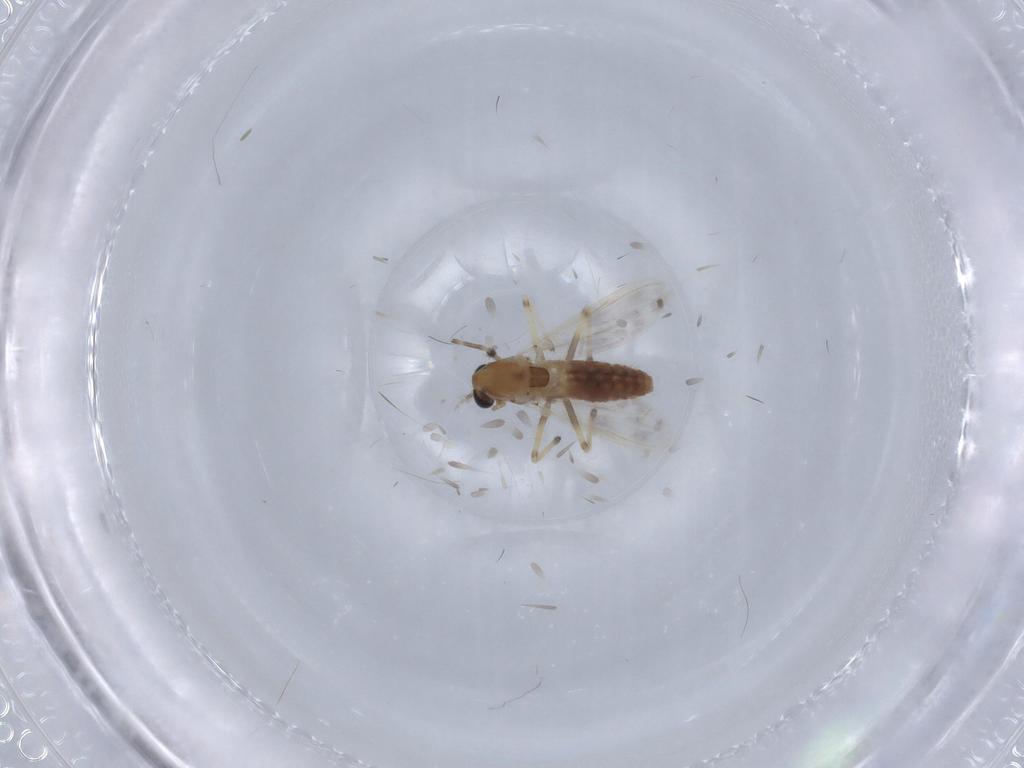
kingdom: Animalia
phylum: Arthropoda
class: Insecta
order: Diptera
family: Chironomidae
